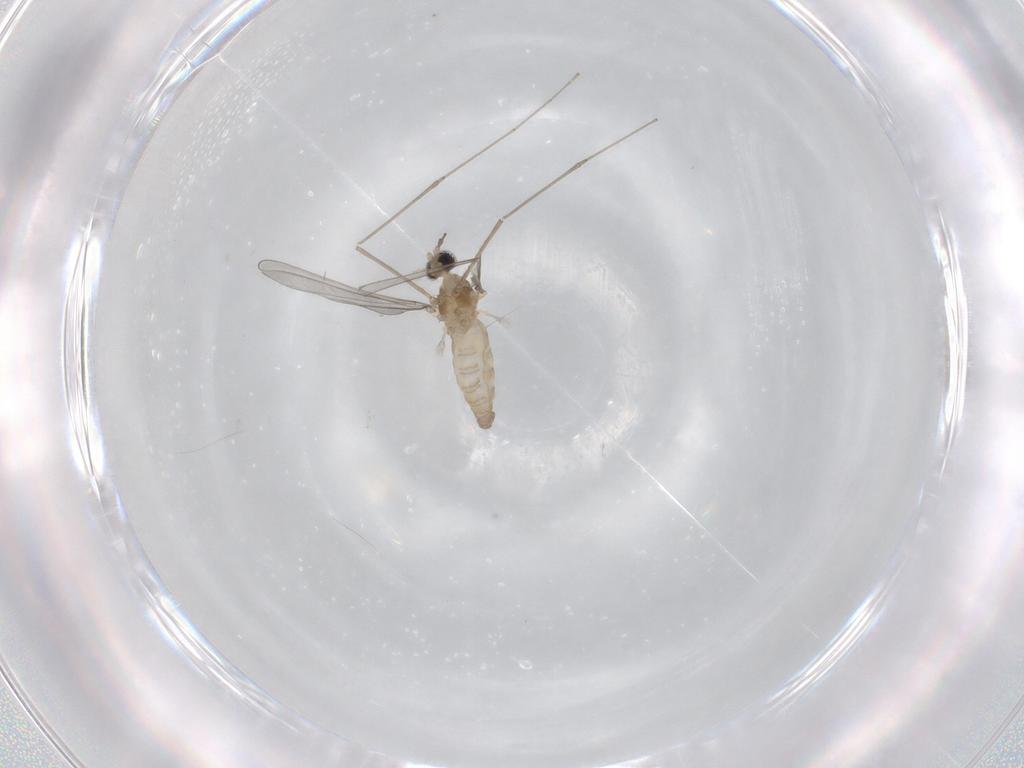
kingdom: Animalia
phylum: Arthropoda
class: Insecta
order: Diptera
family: Cecidomyiidae
